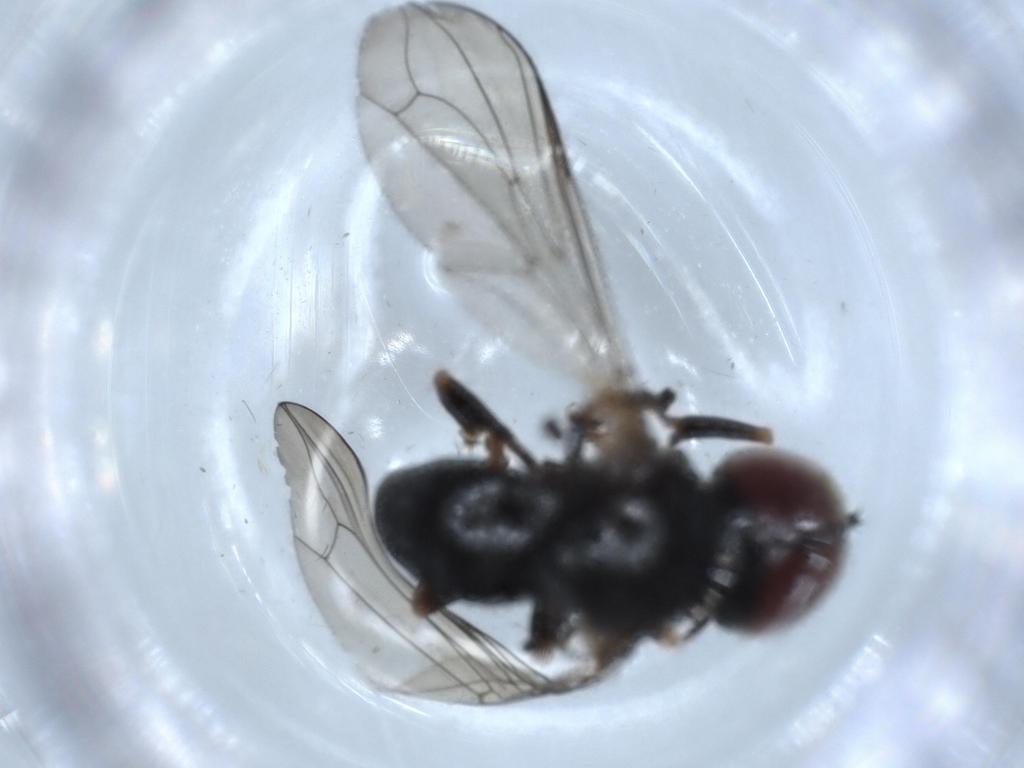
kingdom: Animalia
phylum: Arthropoda
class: Insecta
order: Diptera
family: Pipunculidae
